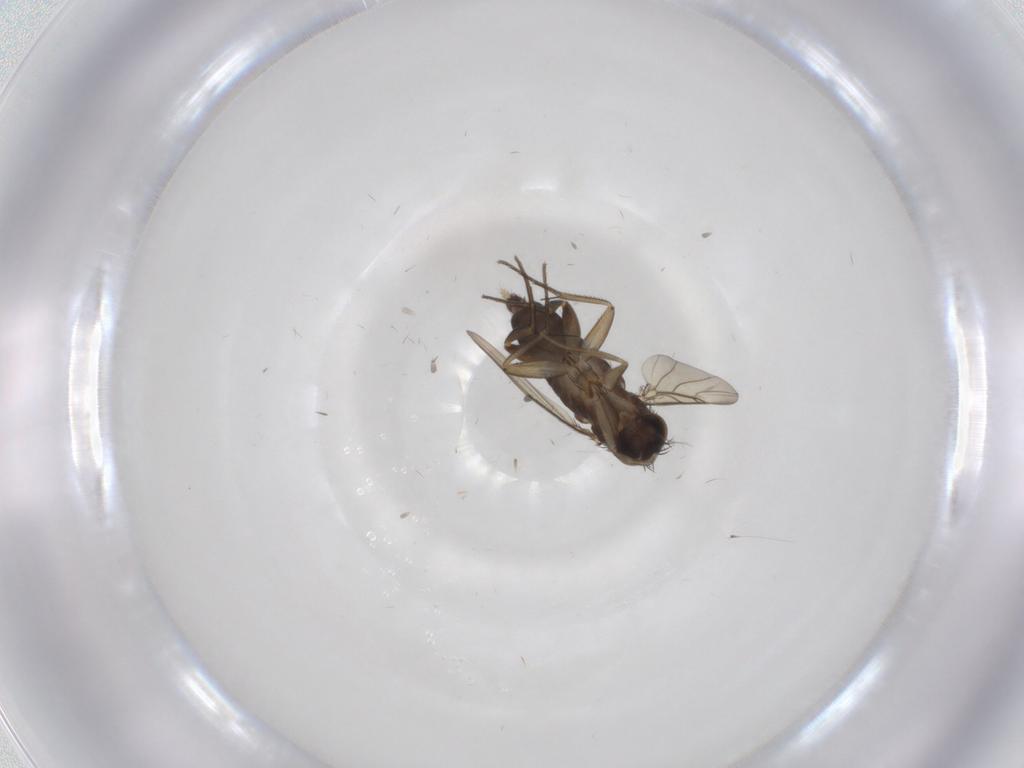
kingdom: Animalia
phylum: Arthropoda
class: Insecta
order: Diptera
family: Phoridae
